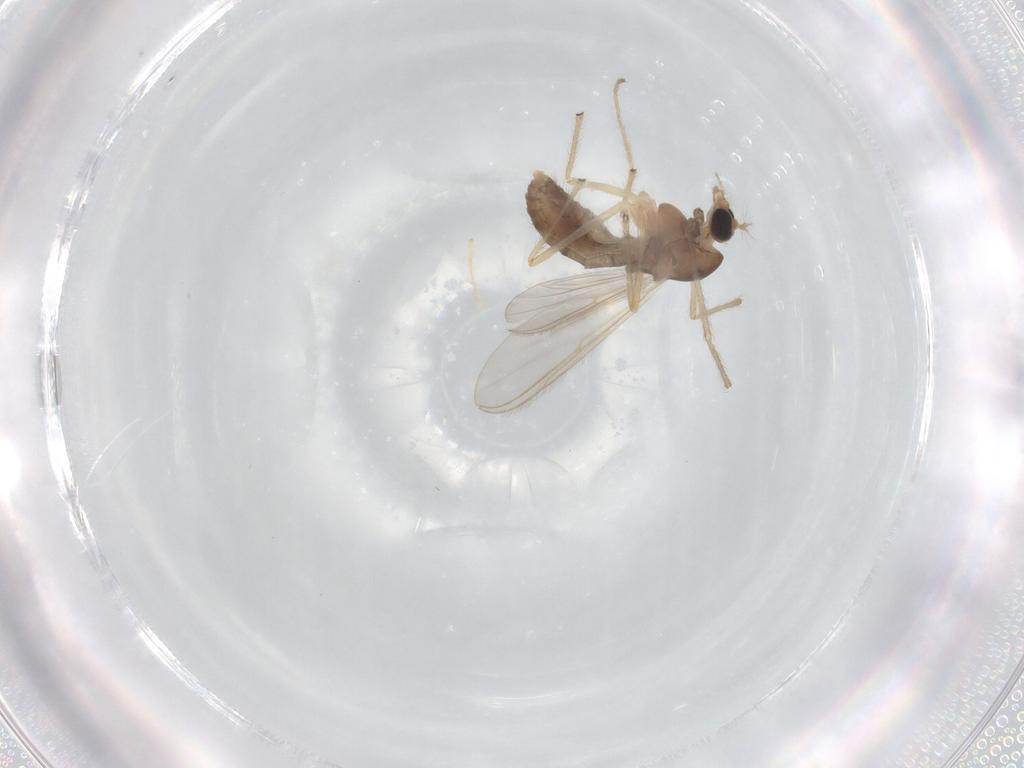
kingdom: Animalia
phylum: Arthropoda
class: Insecta
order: Diptera
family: Chironomidae
